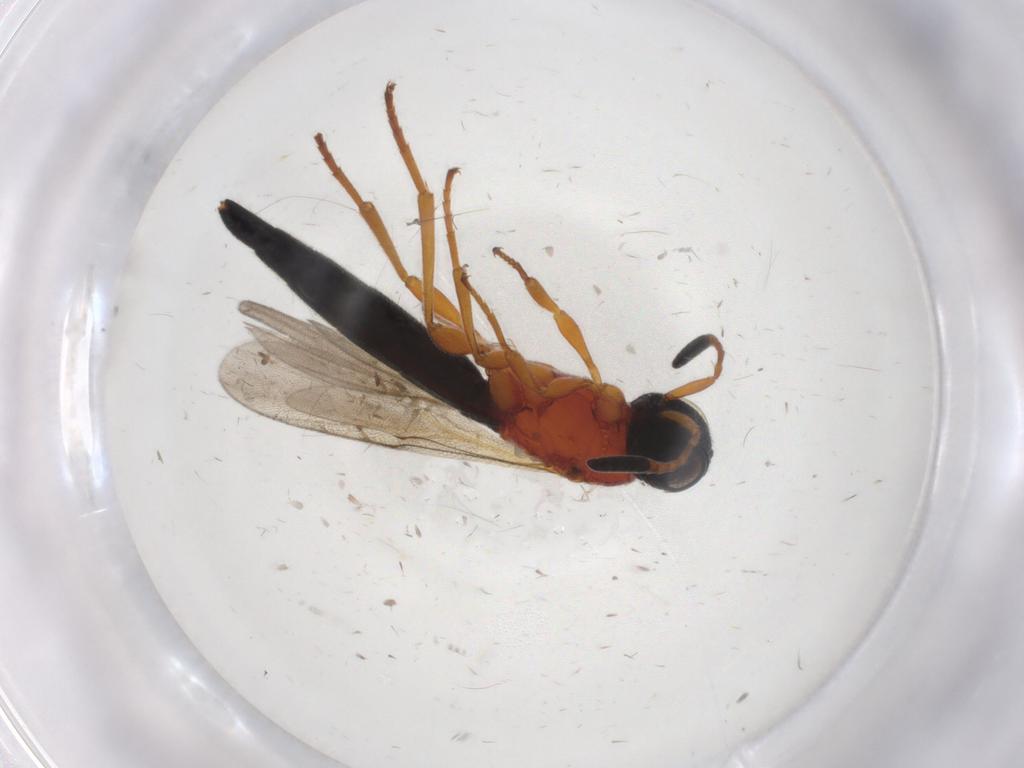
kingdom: Animalia
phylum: Arthropoda
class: Insecta
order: Hymenoptera
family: Scelionidae
